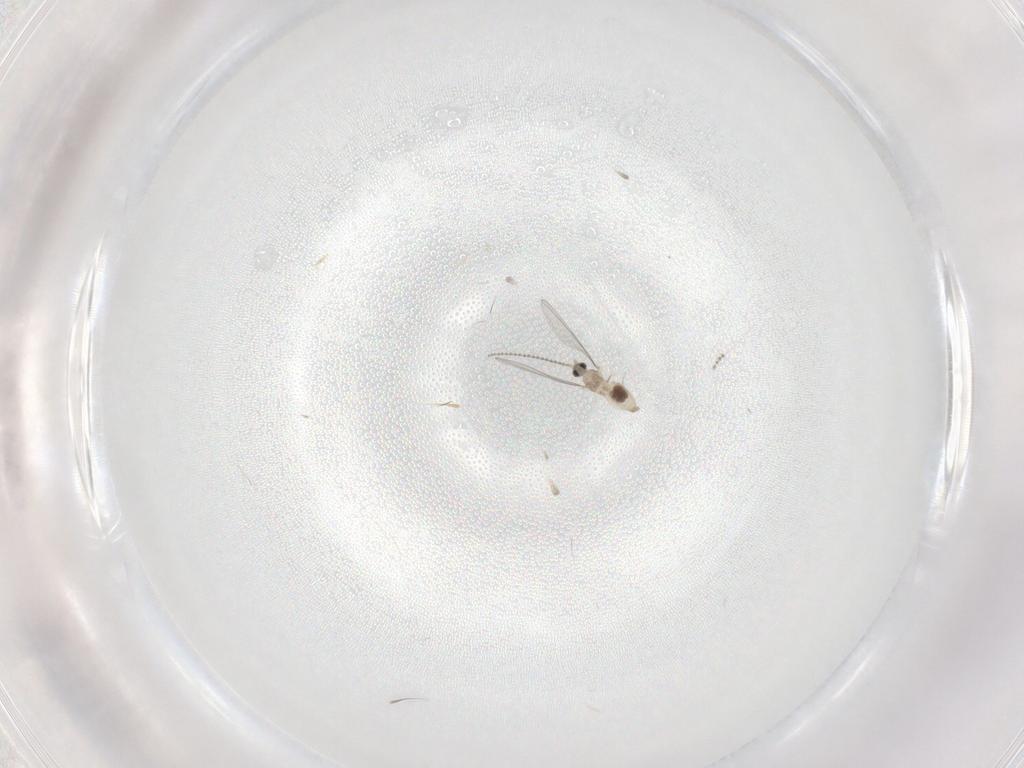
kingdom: Animalia
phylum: Arthropoda
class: Insecta
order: Diptera
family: Cecidomyiidae
